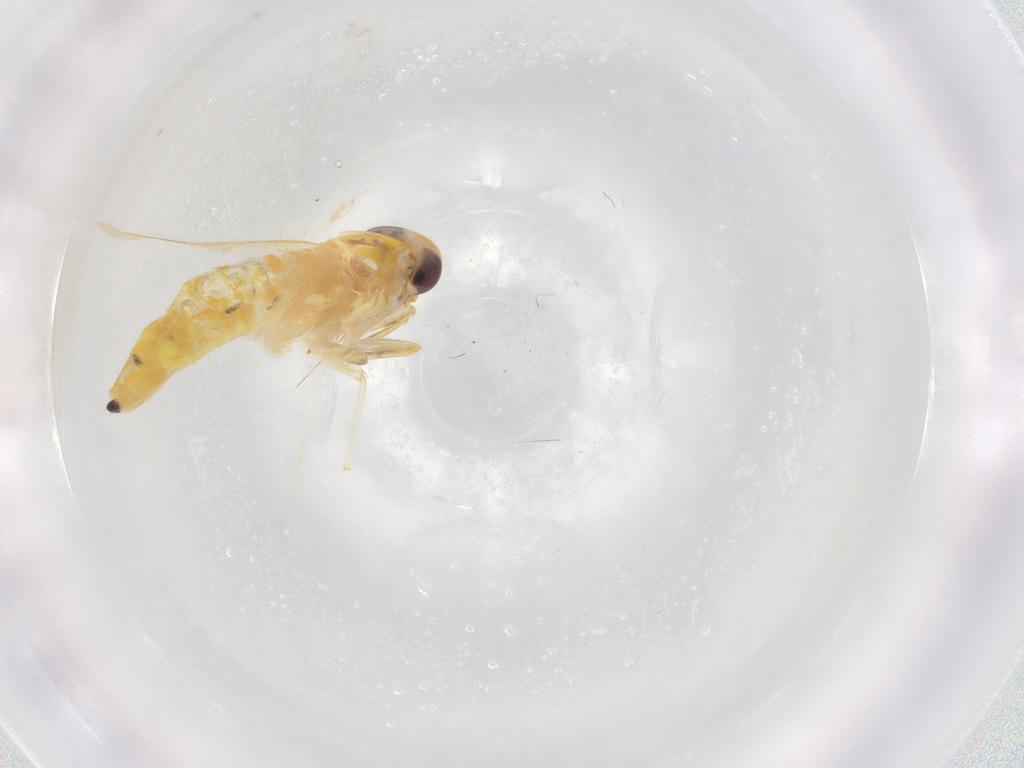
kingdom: Animalia
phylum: Arthropoda
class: Insecta
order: Hemiptera
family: Cicadellidae
